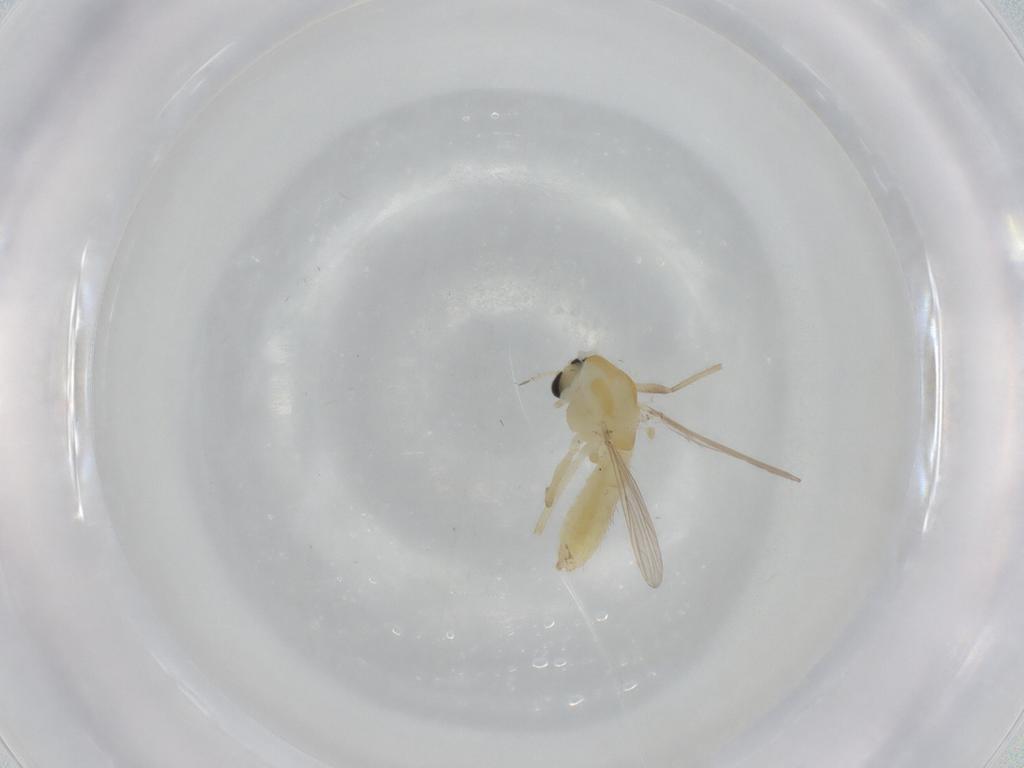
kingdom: Animalia
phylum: Arthropoda
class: Insecta
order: Diptera
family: Chironomidae
